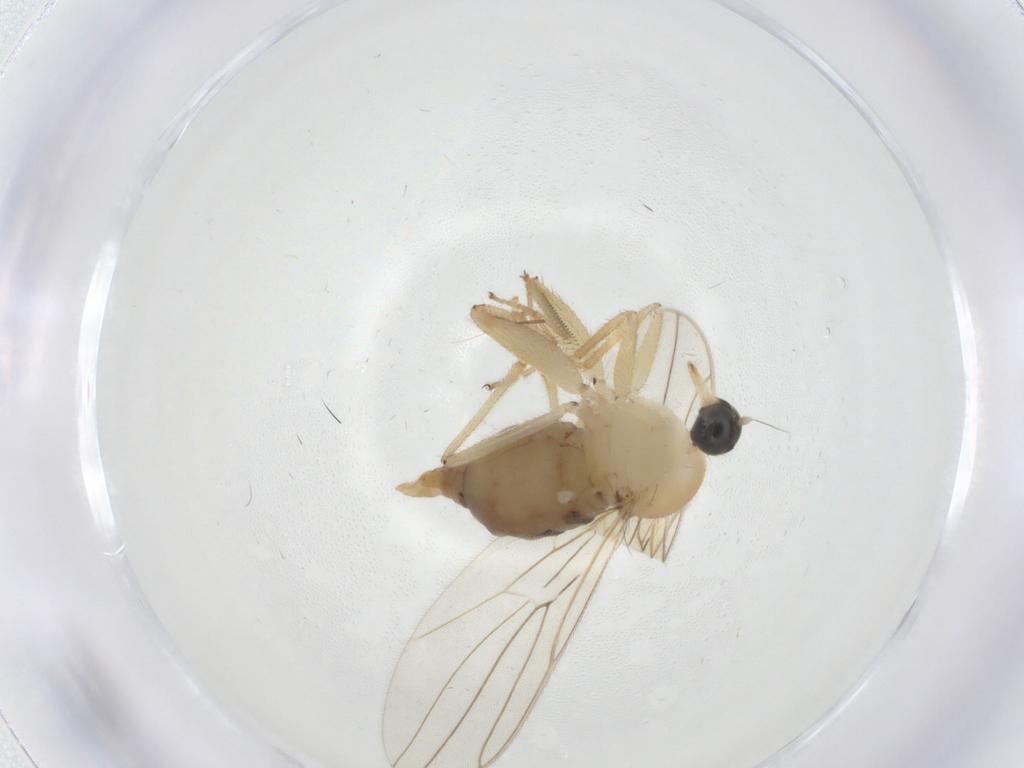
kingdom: Animalia
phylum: Arthropoda
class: Insecta
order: Diptera
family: Hybotidae
